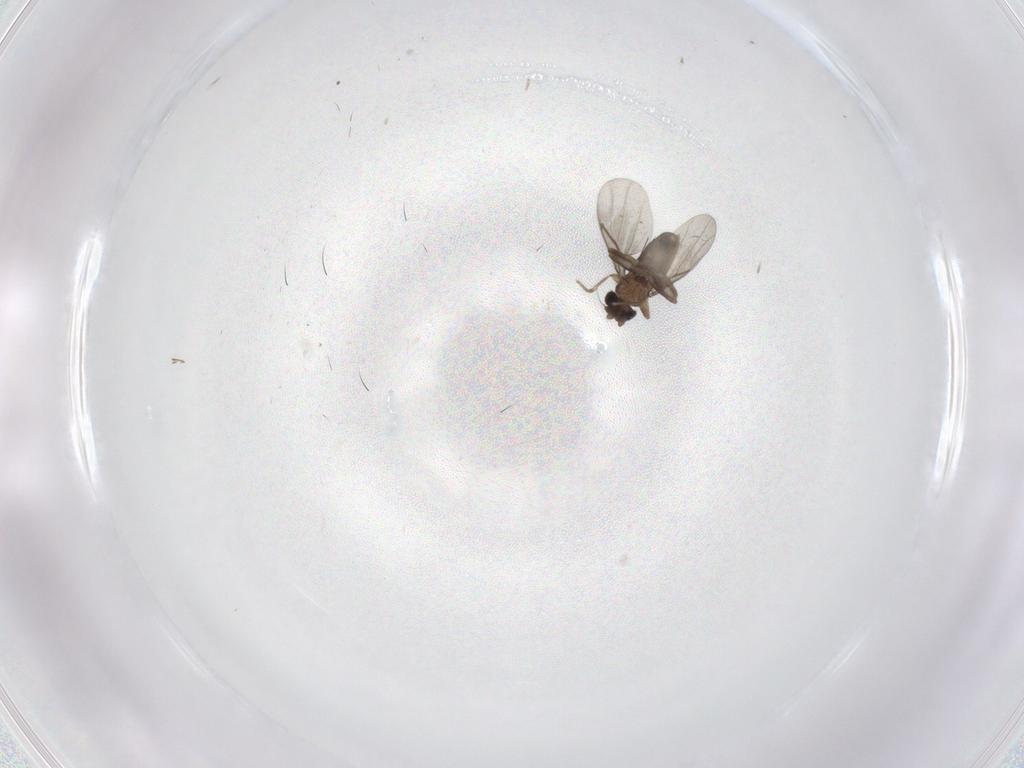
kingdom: Animalia
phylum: Arthropoda
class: Insecta
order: Diptera
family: Cecidomyiidae
